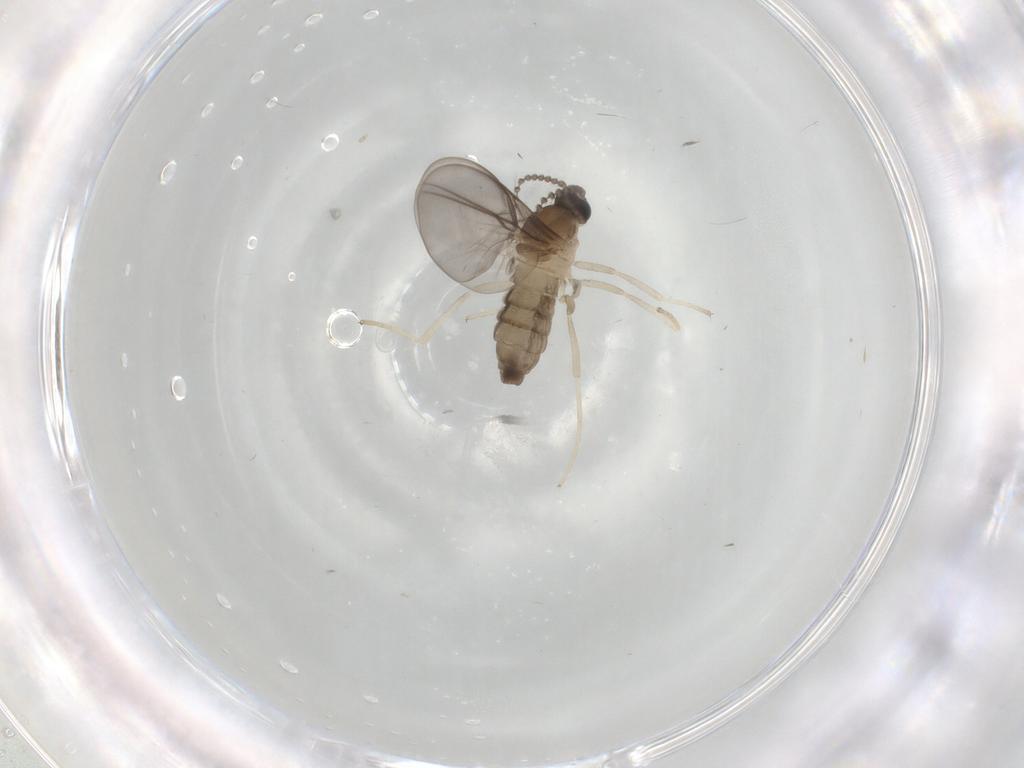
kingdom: Animalia
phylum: Arthropoda
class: Insecta
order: Diptera
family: Cecidomyiidae
